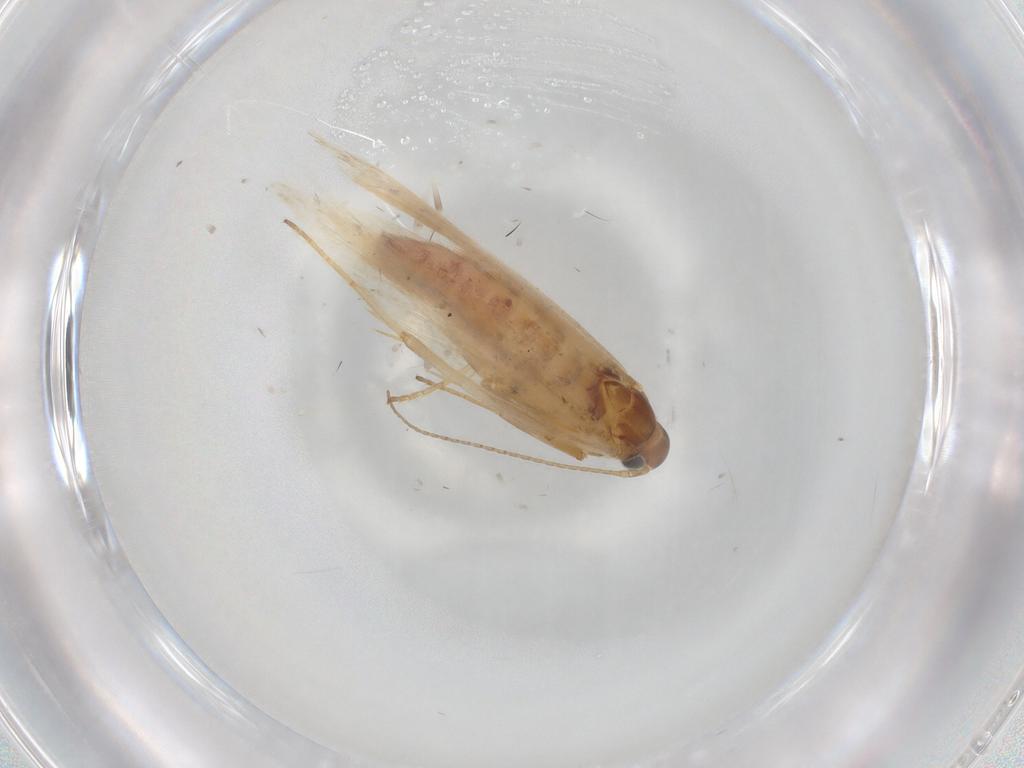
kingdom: Animalia
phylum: Arthropoda
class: Insecta
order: Lepidoptera
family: Gelechiidae
